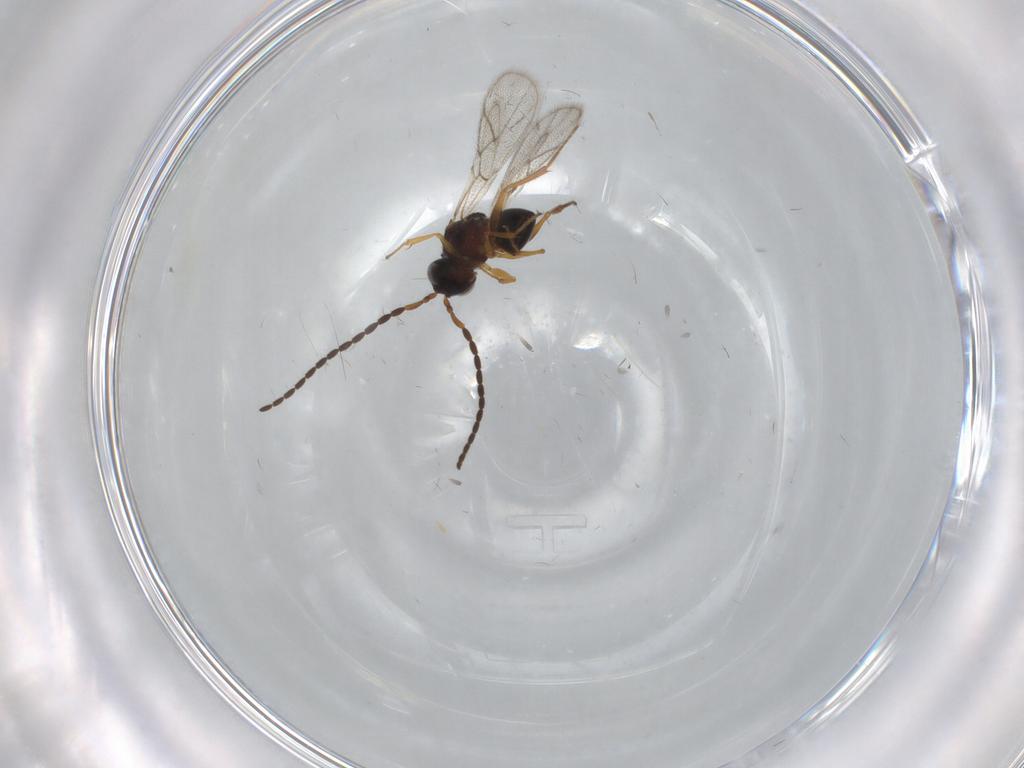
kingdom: Animalia
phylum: Arthropoda
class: Insecta
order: Hymenoptera
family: Figitidae
